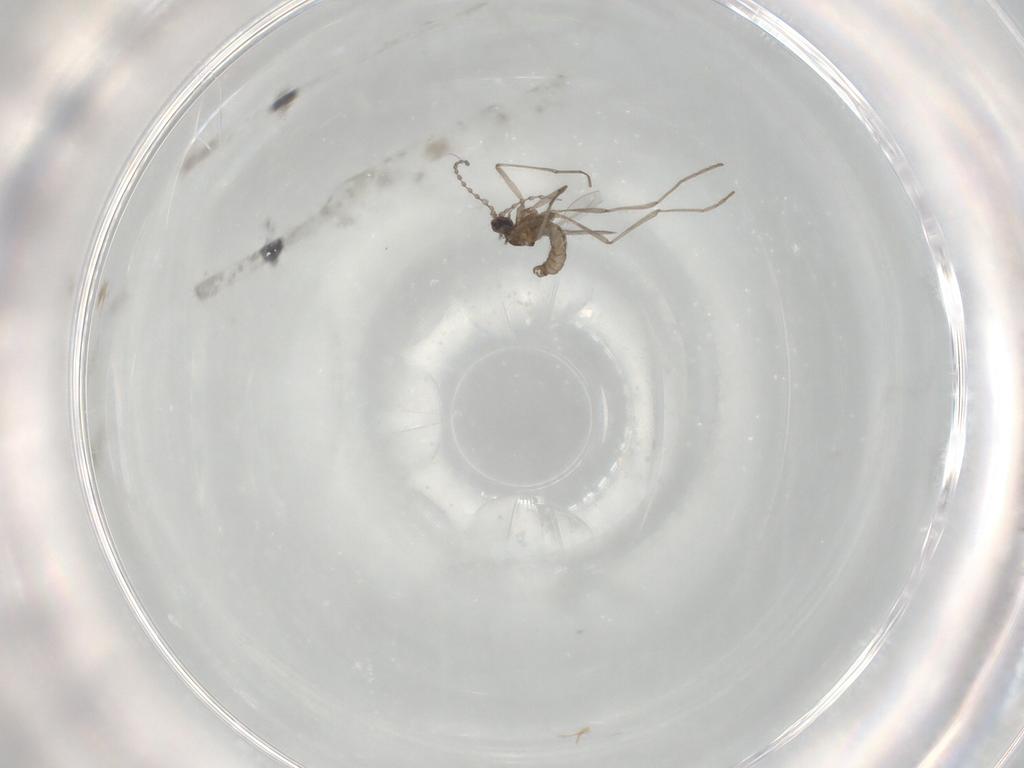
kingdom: Animalia
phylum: Arthropoda
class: Insecta
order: Diptera
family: Cecidomyiidae
